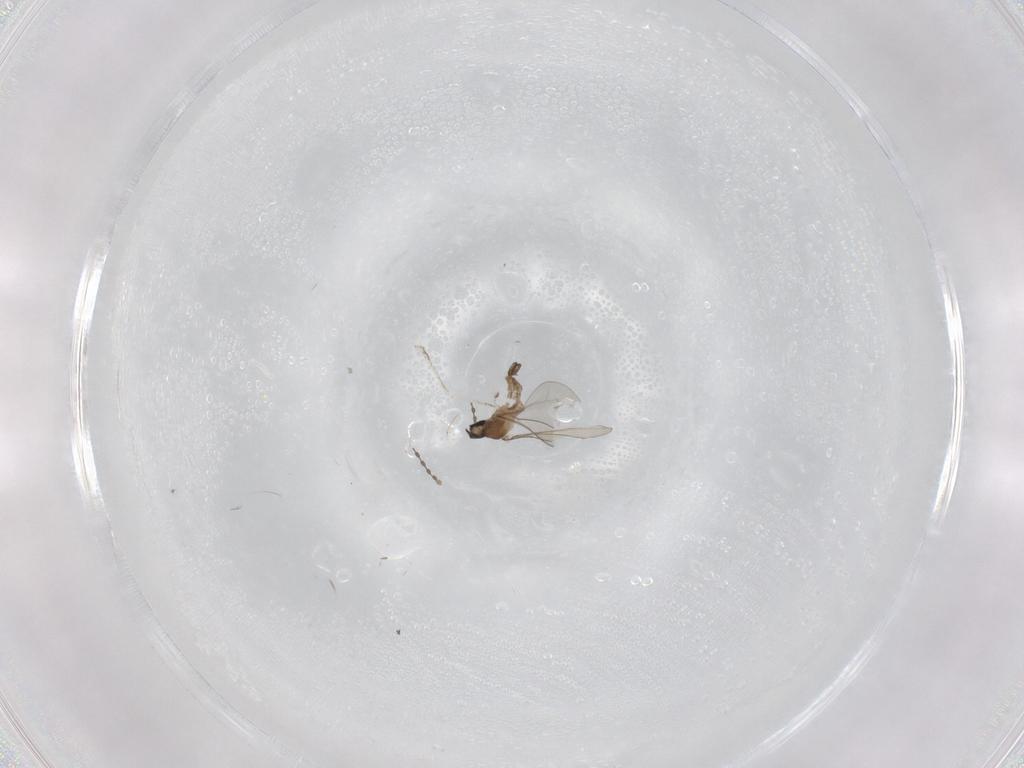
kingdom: Animalia
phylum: Arthropoda
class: Insecta
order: Diptera
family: Cecidomyiidae
